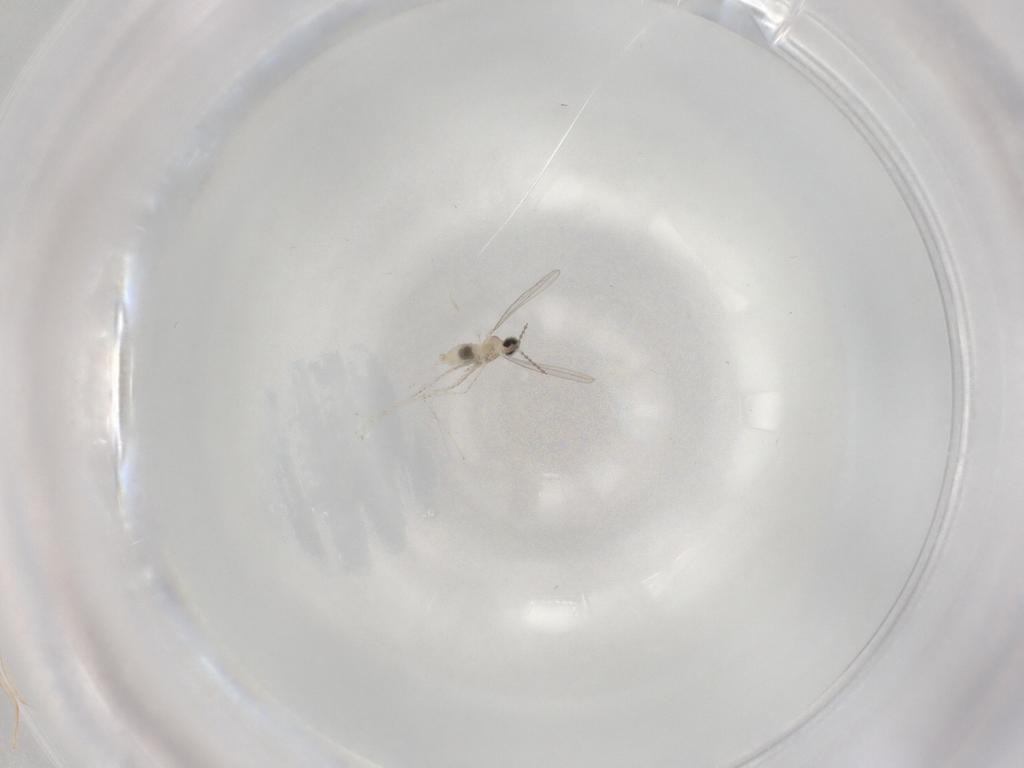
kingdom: Animalia
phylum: Arthropoda
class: Insecta
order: Diptera
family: Cecidomyiidae
